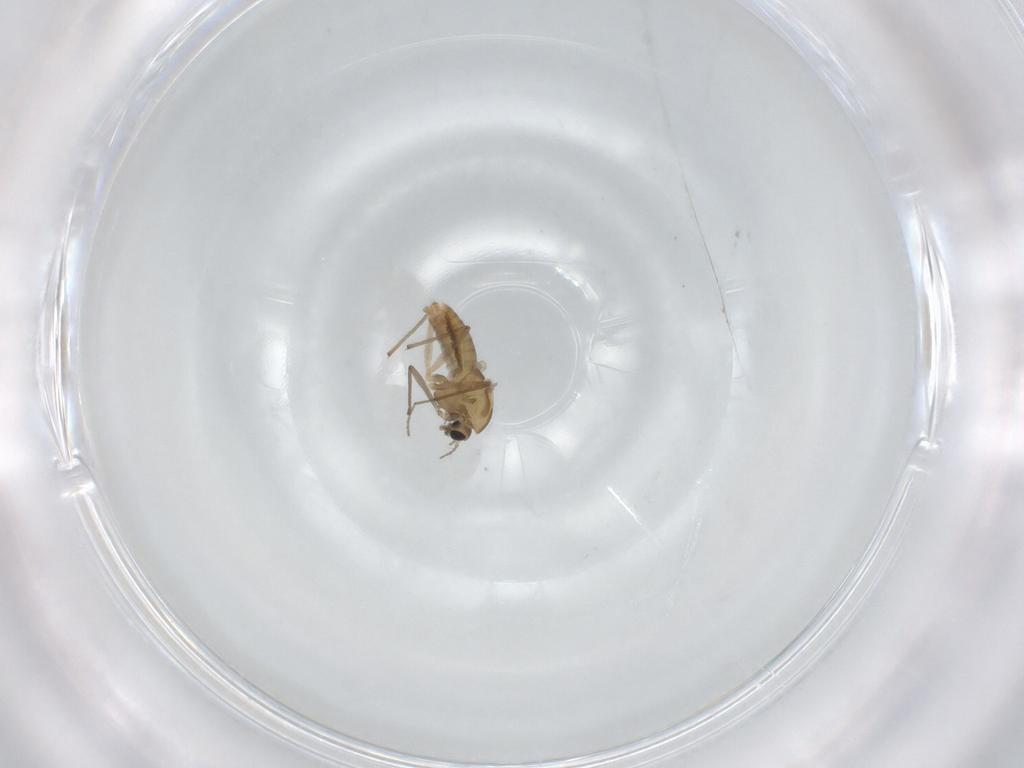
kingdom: Animalia
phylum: Arthropoda
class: Insecta
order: Diptera
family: Chironomidae
